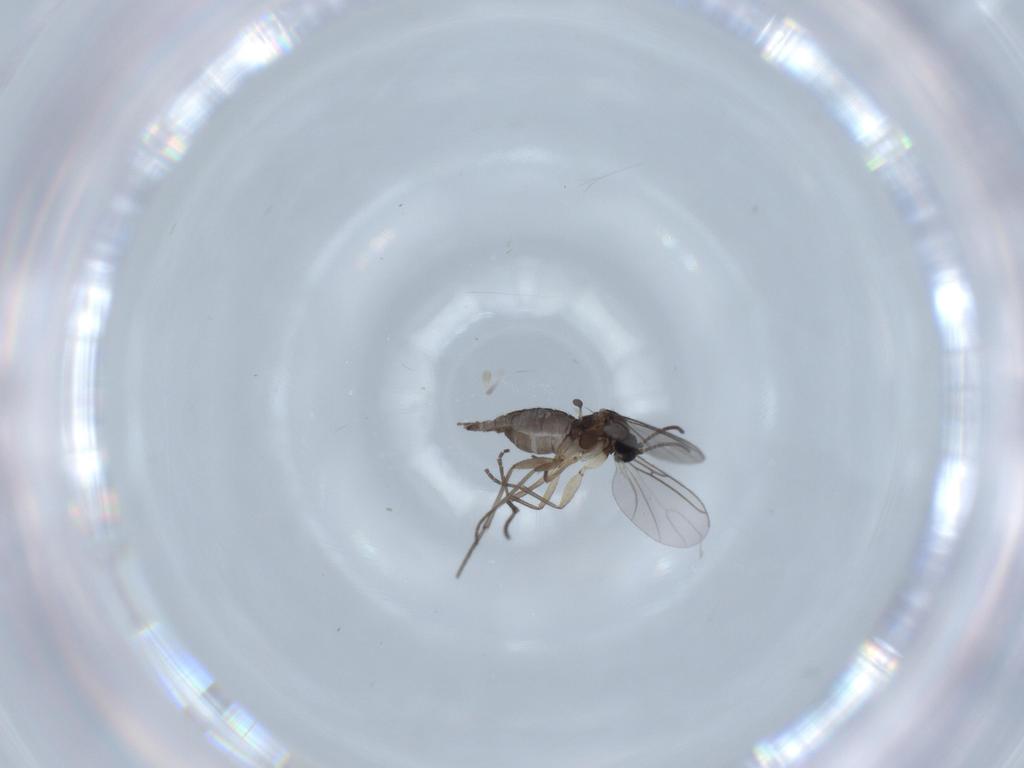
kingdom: Animalia
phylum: Arthropoda
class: Insecta
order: Diptera
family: Sciaridae
